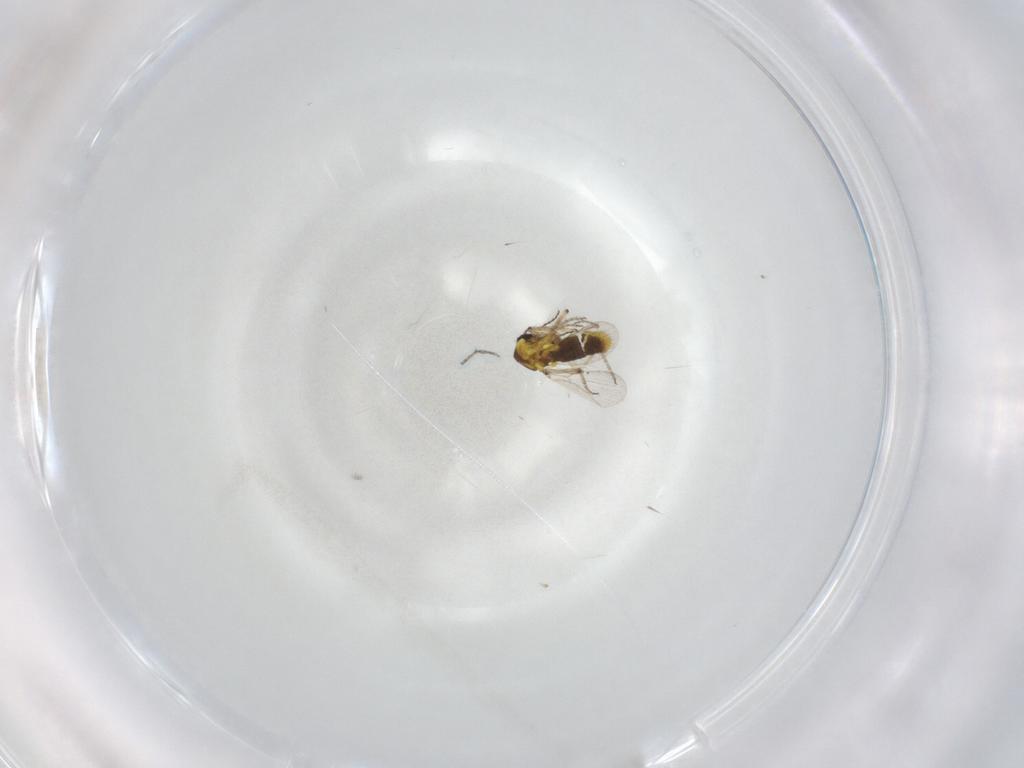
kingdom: Animalia
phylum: Arthropoda
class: Insecta
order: Diptera
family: Ceratopogonidae
